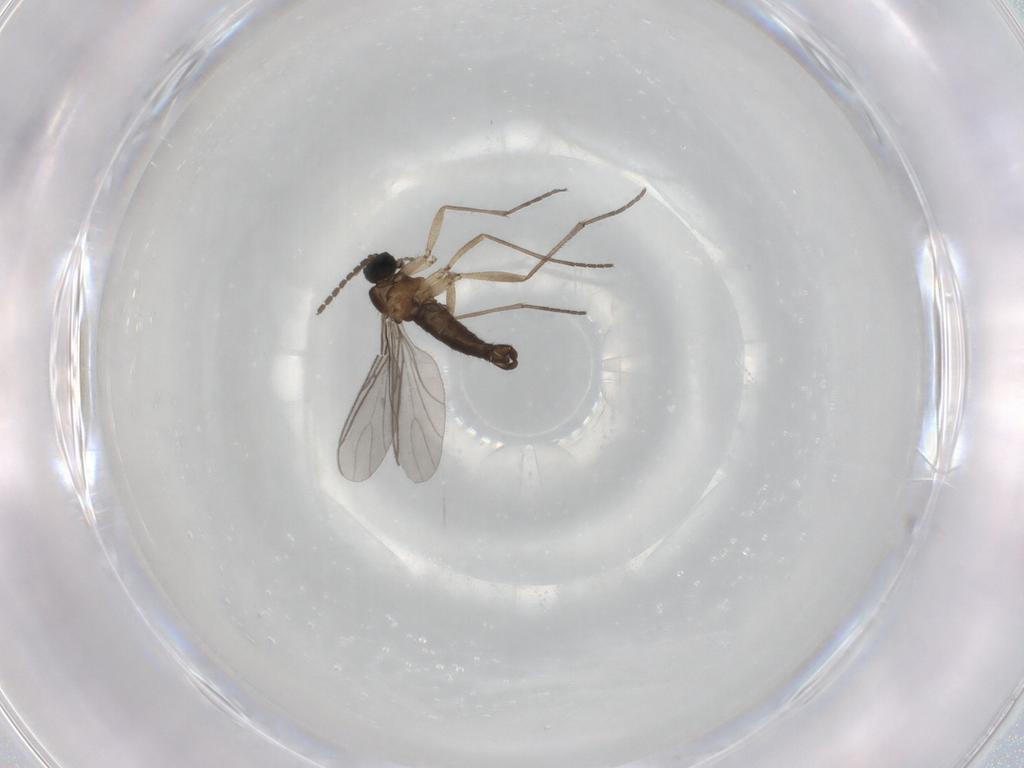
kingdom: Animalia
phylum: Arthropoda
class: Insecta
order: Diptera
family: Sciaridae
